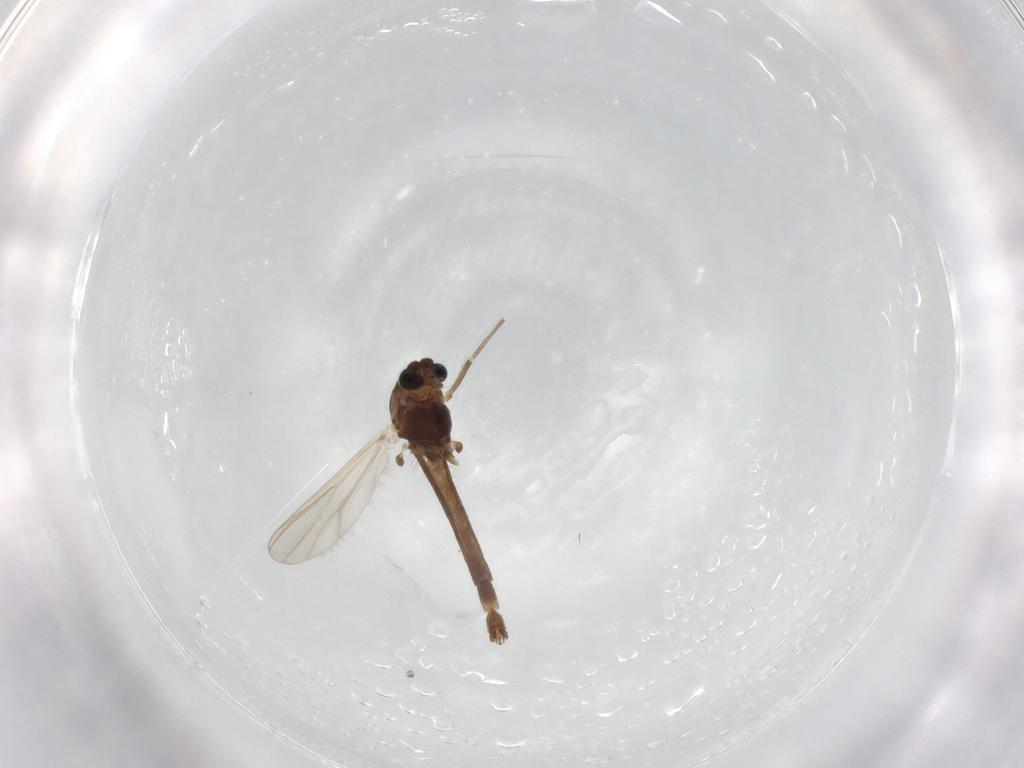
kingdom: Animalia
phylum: Arthropoda
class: Insecta
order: Diptera
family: Chironomidae
